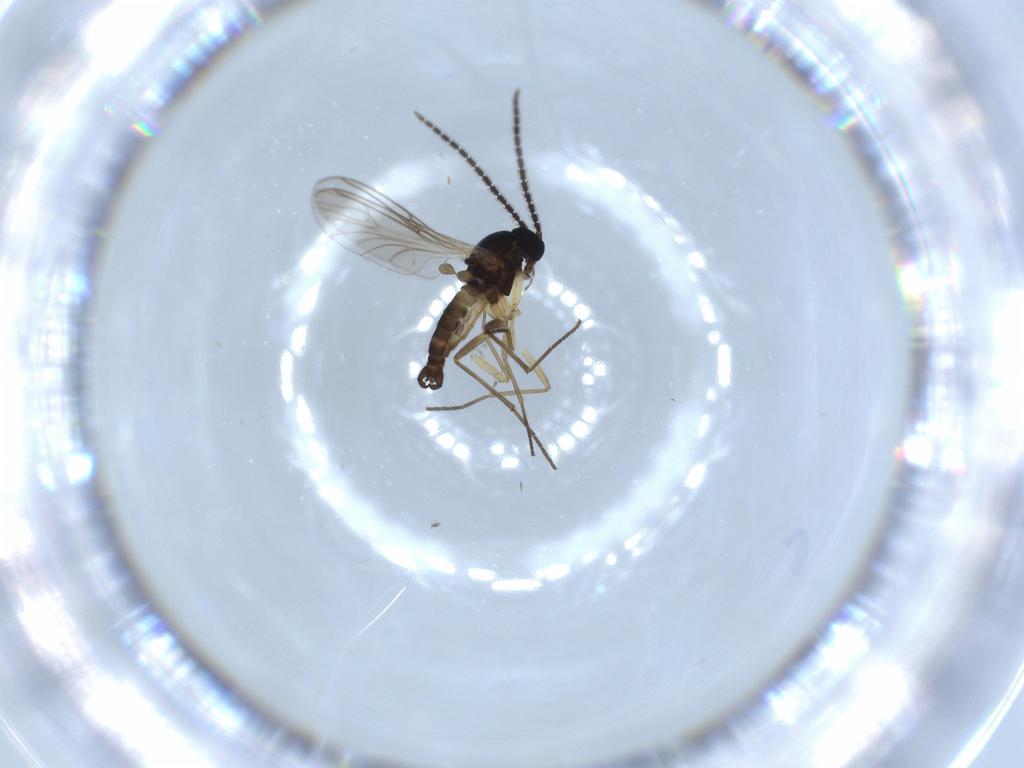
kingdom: Animalia
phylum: Arthropoda
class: Insecta
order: Diptera
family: Sciaridae
